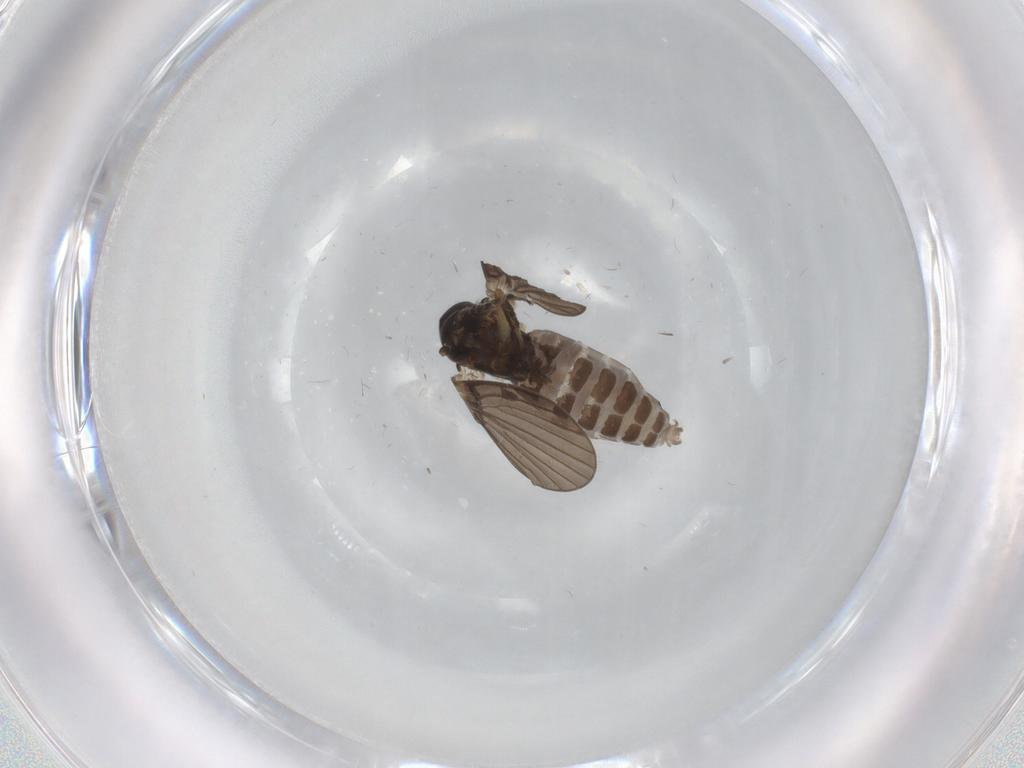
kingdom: Animalia
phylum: Arthropoda
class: Insecta
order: Diptera
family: Psychodidae
